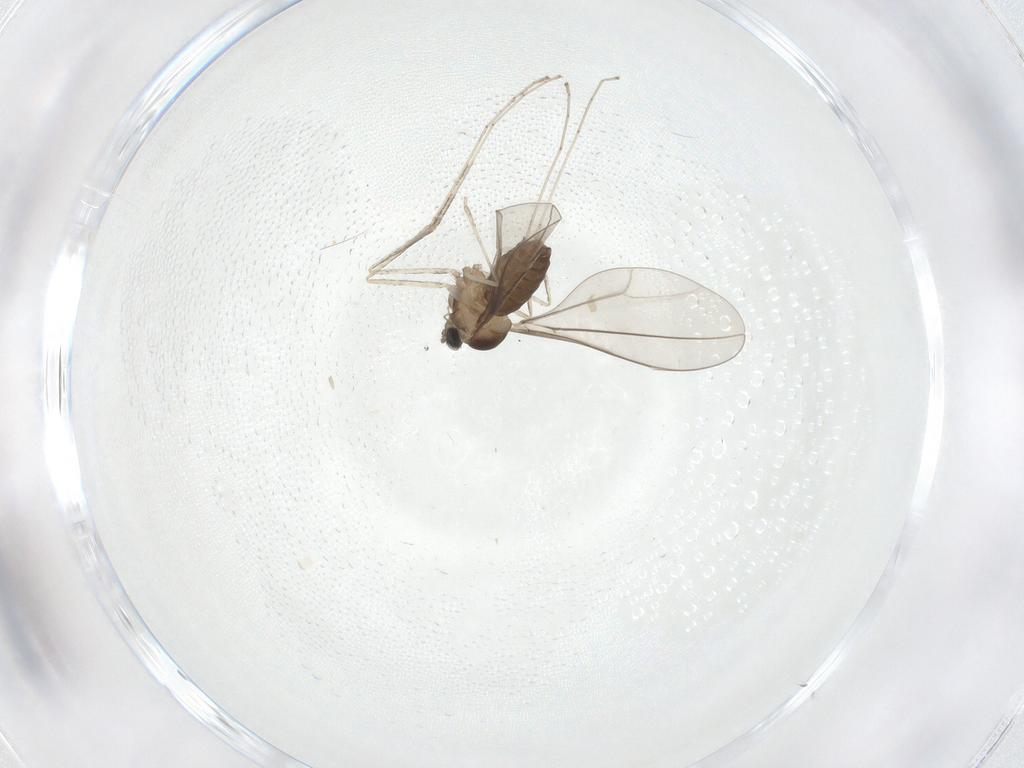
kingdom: Animalia
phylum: Arthropoda
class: Insecta
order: Diptera
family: Cecidomyiidae
